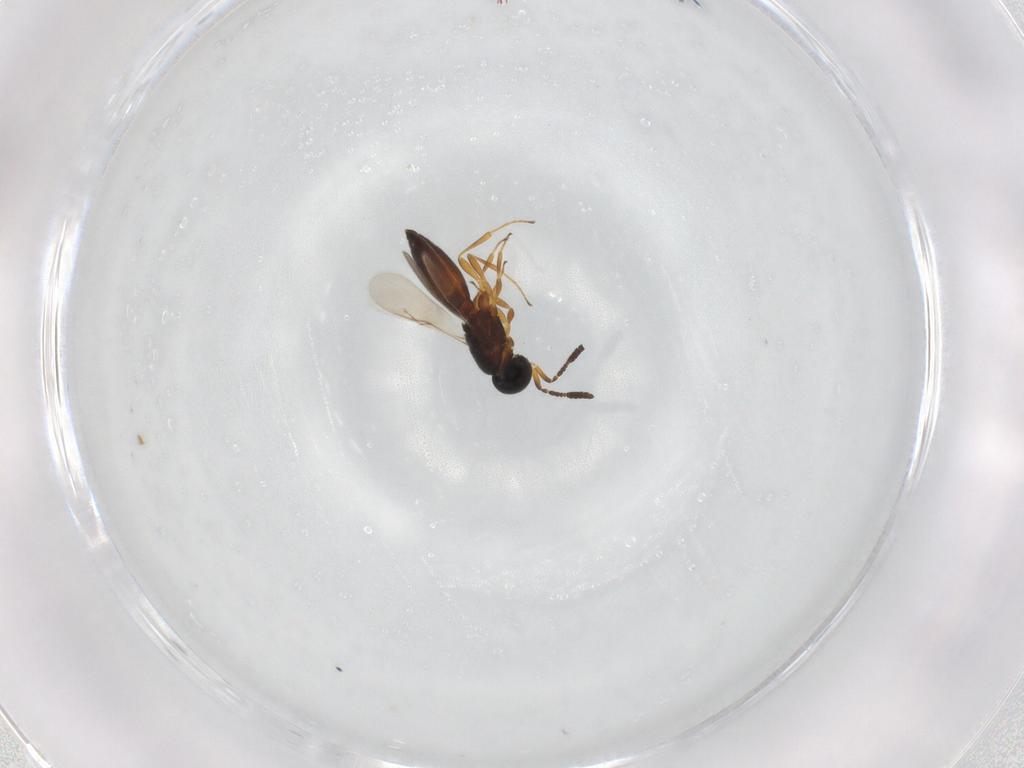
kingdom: Animalia
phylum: Arthropoda
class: Insecta
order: Hymenoptera
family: Scelionidae
